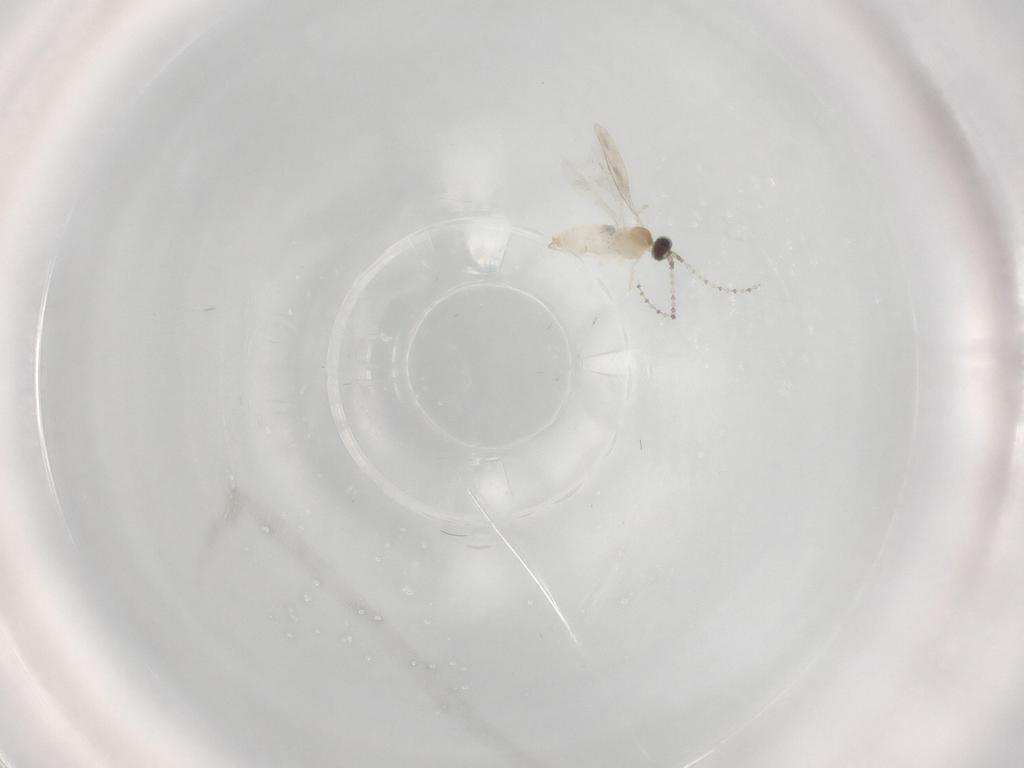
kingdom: Animalia
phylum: Arthropoda
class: Insecta
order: Diptera
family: Cecidomyiidae
